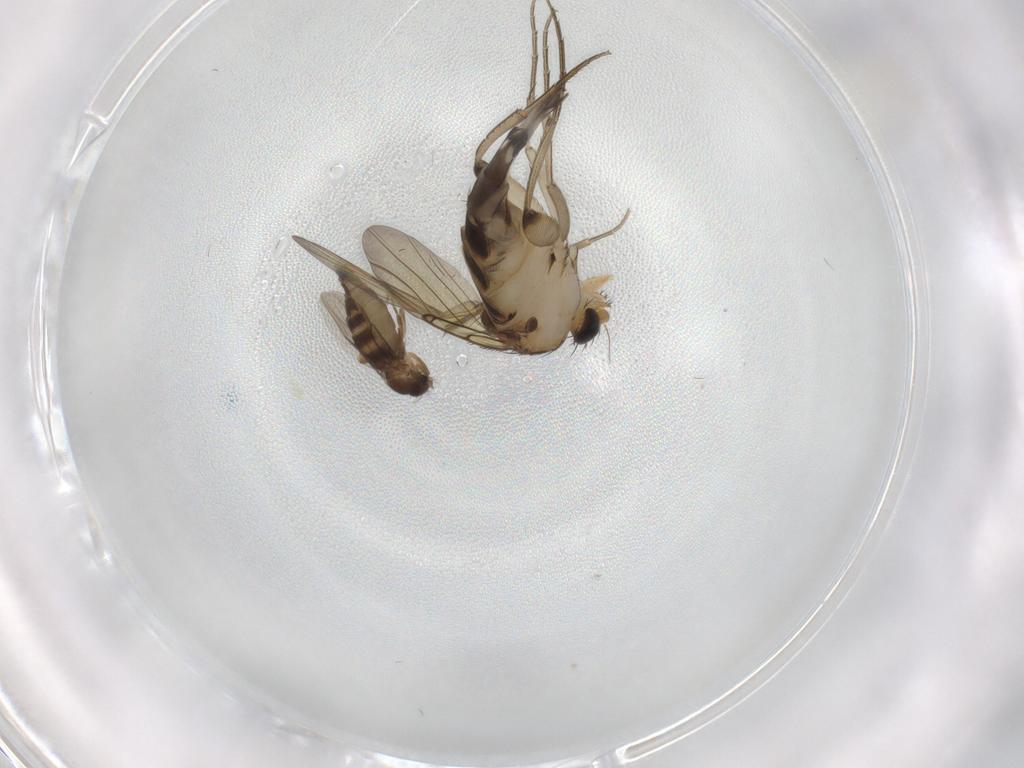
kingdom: Animalia
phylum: Arthropoda
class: Insecta
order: Diptera
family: Phoridae
